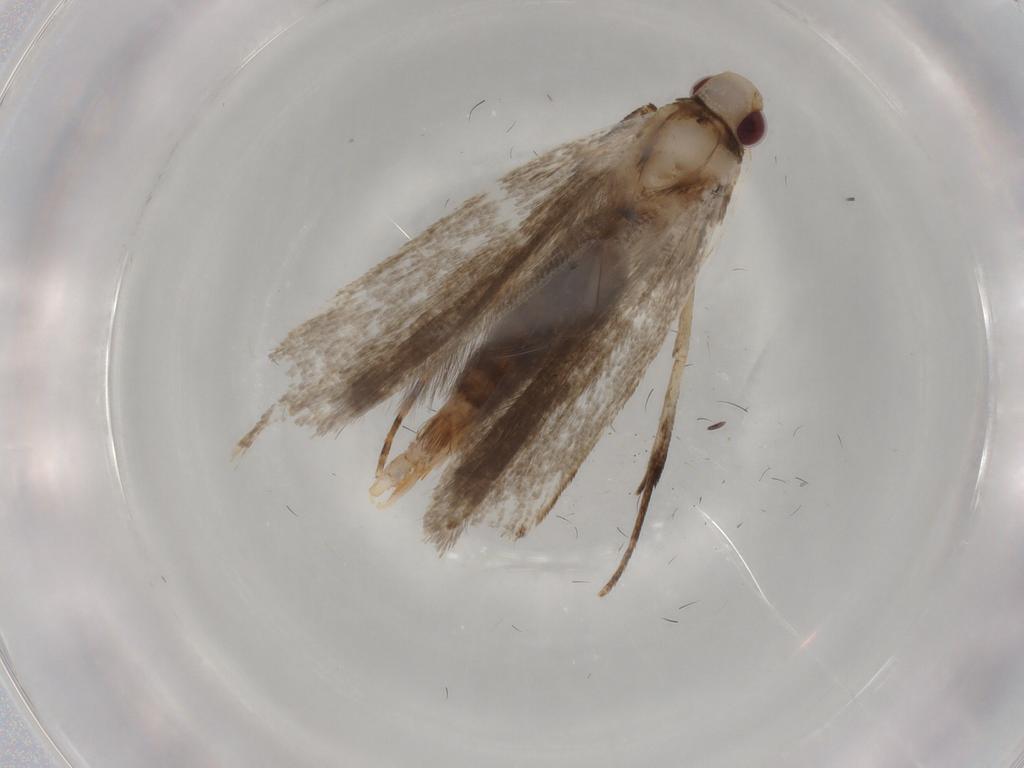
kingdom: Animalia
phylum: Arthropoda
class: Insecta
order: Lepidoptera
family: Gelechiidae
